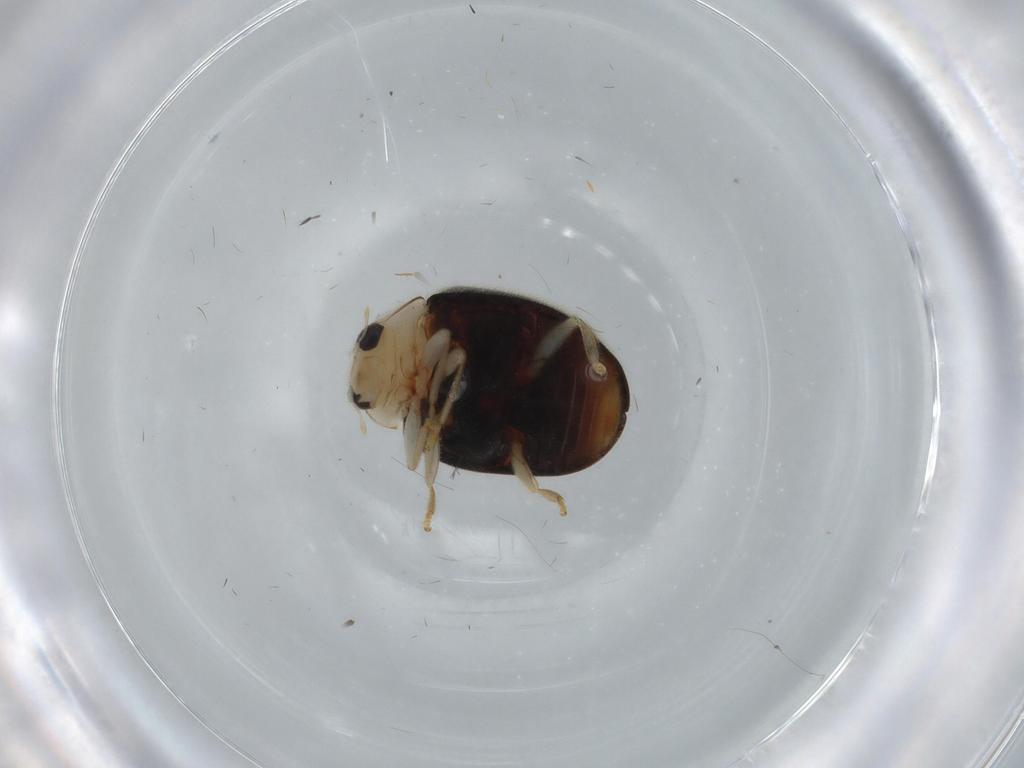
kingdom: Animalia
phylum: Arthropoda
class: Insecta
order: Coleoptera
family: Coccinellidae
